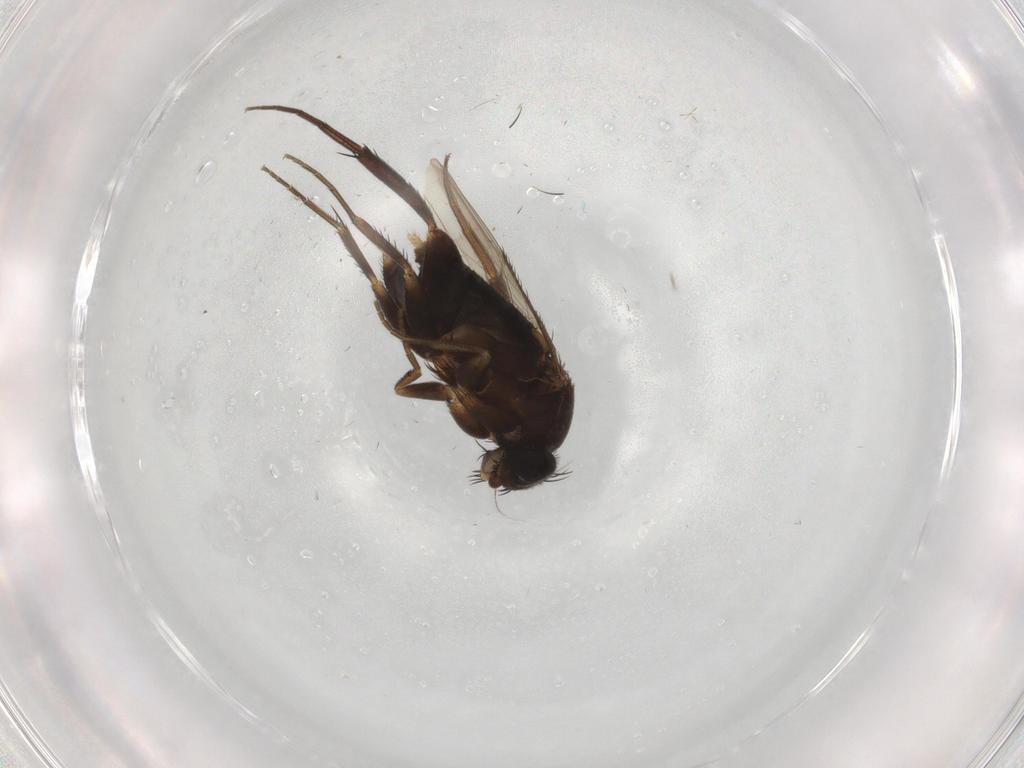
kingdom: Animalia
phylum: Arthropoda
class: Insecta
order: Diptera
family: Phoridae
